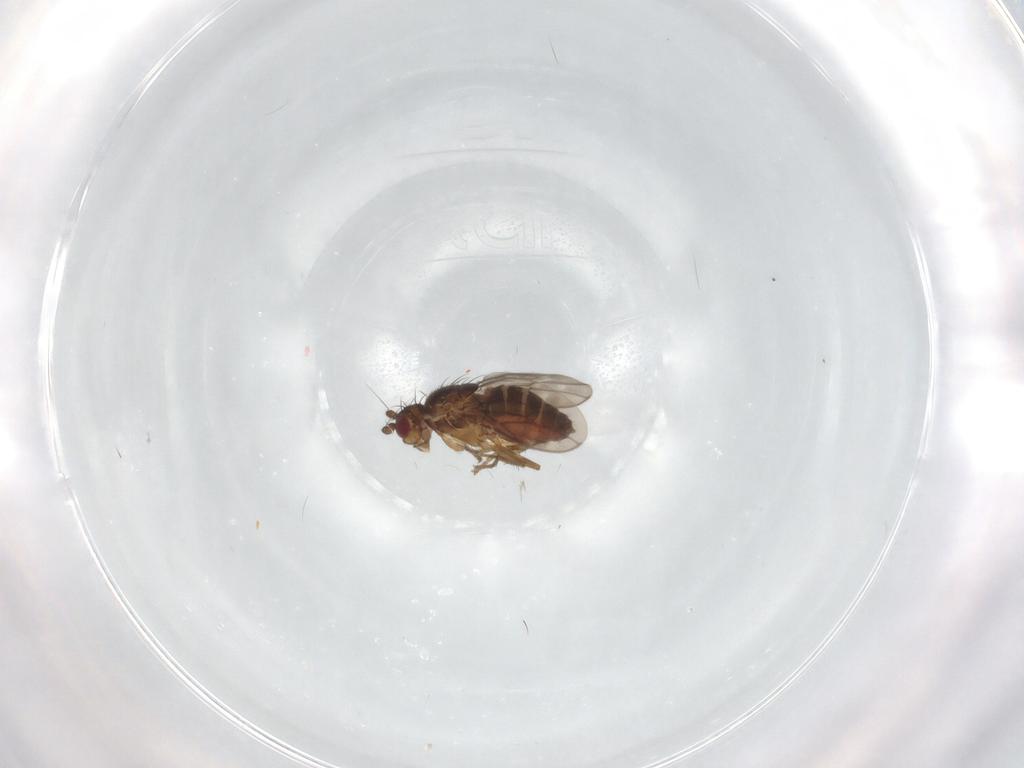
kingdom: Animalia
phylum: Arthropoda
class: Insecta
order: Diptera
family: Sphaeroceridae
